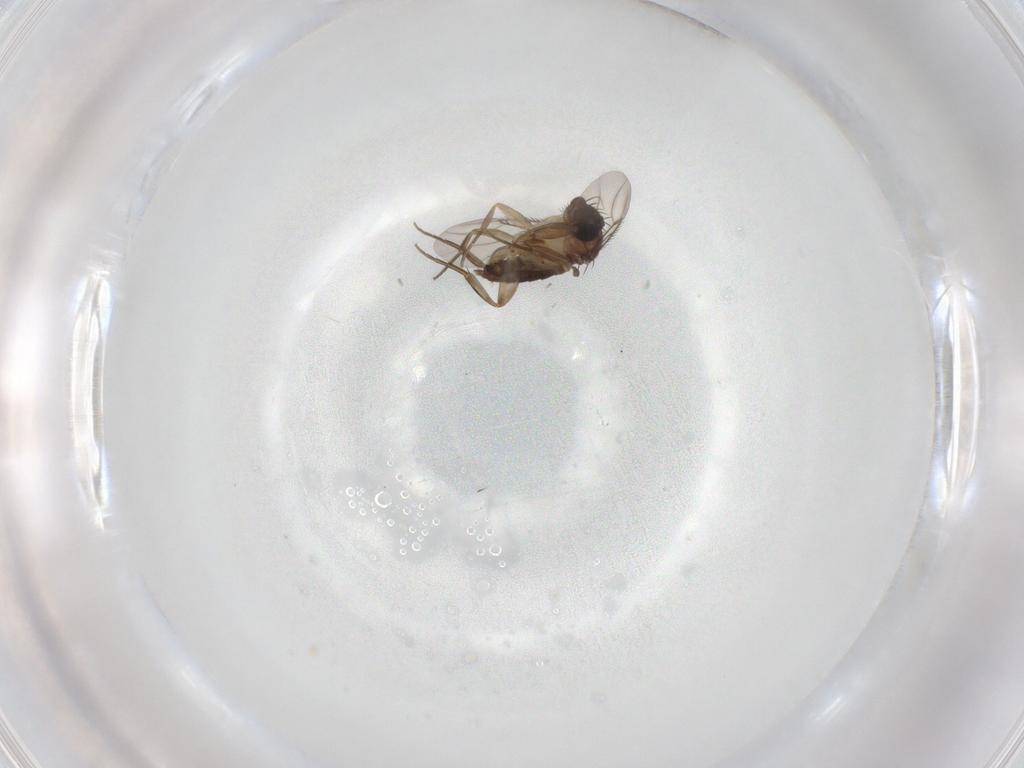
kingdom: Animalia
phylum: Arthropoda
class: Insecta
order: Diptera
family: Phoridae
